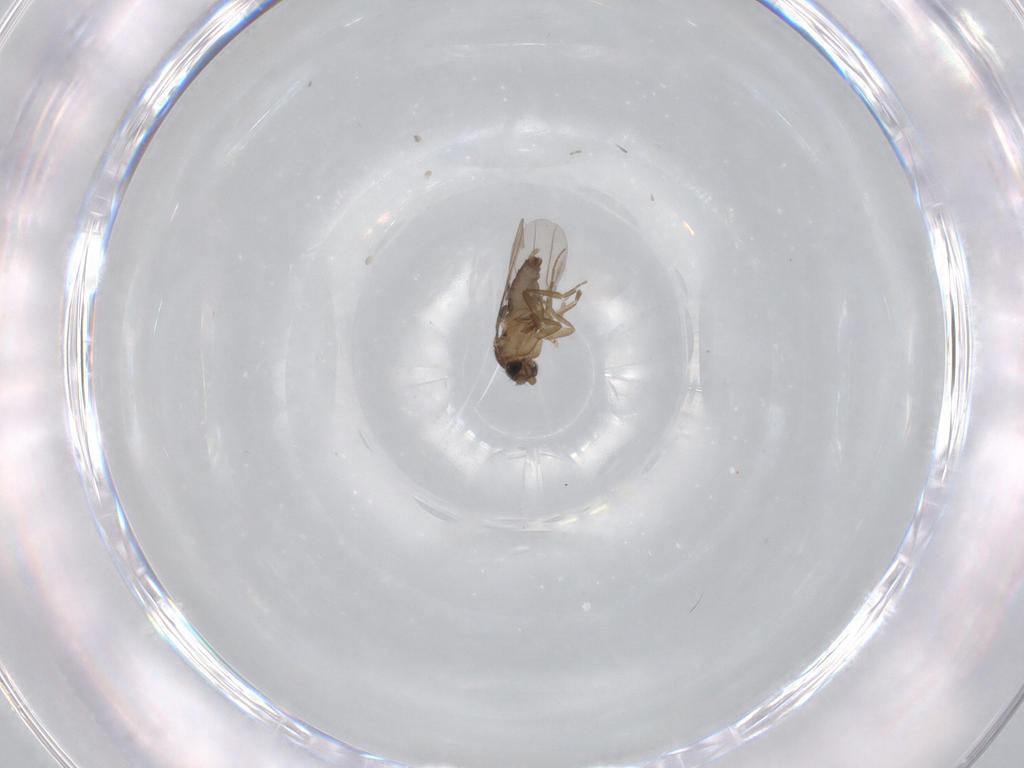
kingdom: Animalia
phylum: Arthropoda
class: Insecta
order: Diptera
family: Phoridae
